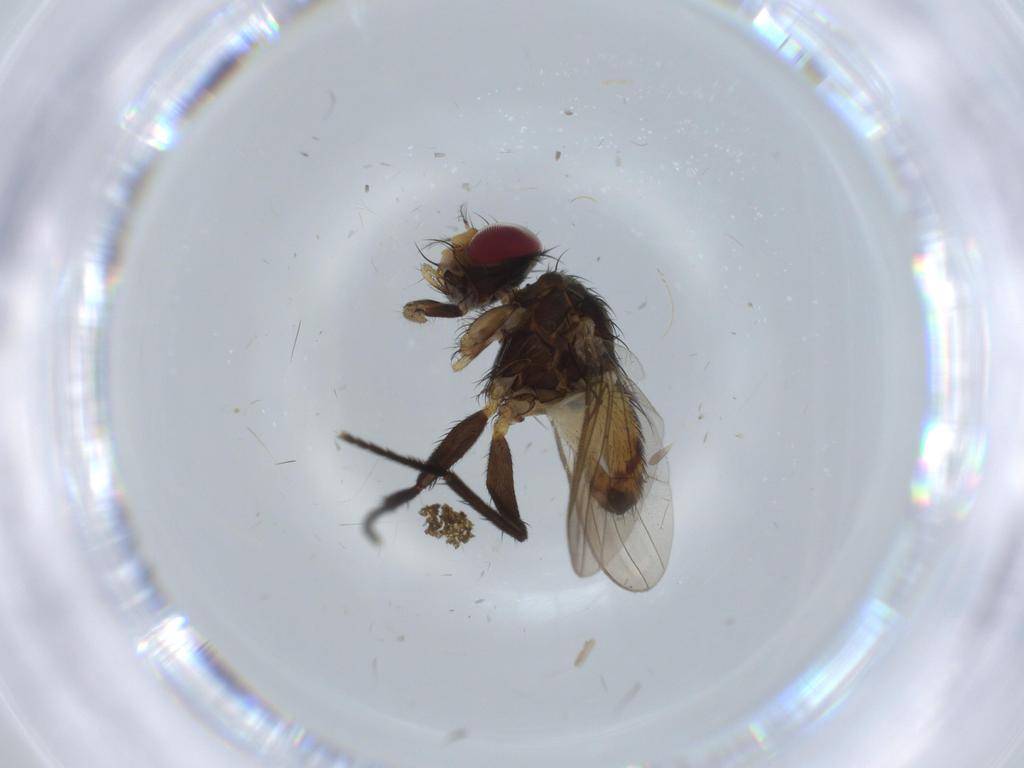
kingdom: Animalia
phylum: Arthropoda
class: Insecta
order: Diptera
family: Anthomyiidae
